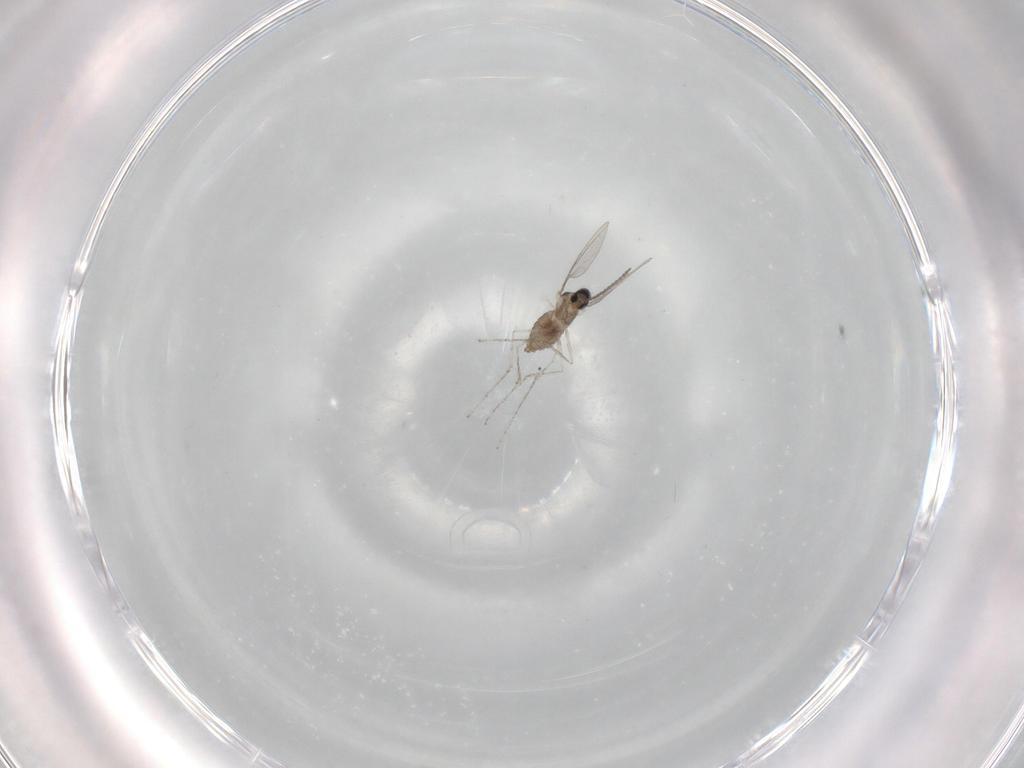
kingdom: Animalia
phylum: Arthropoda
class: Insecta
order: Diptera
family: Cecidomyiidae
